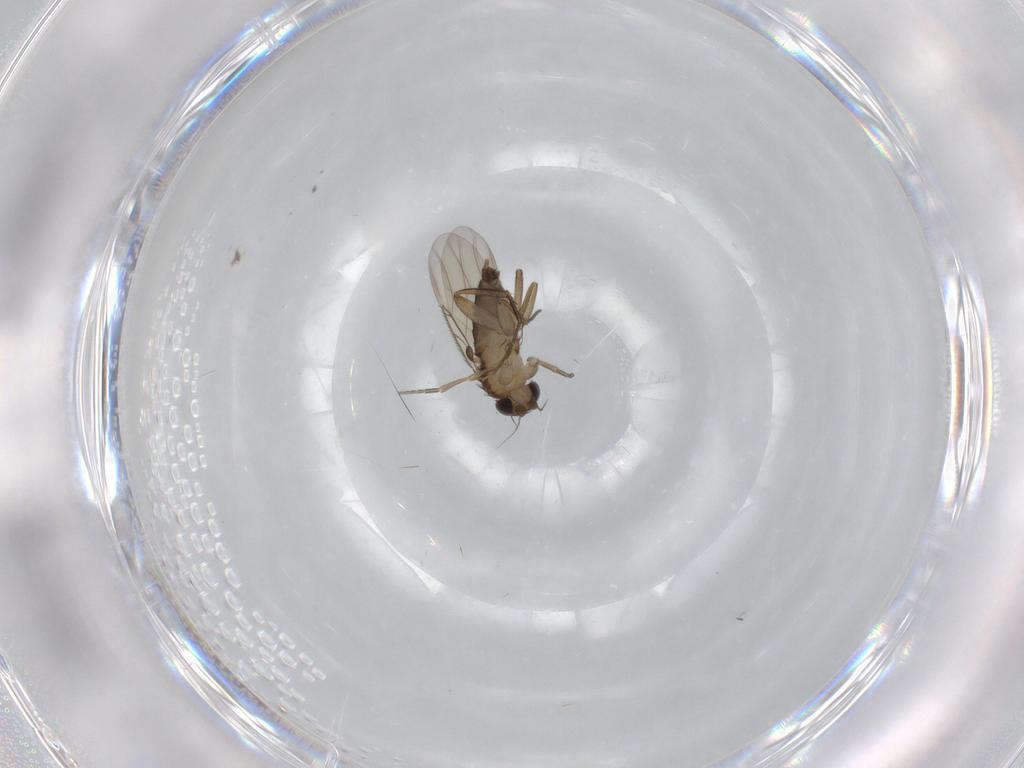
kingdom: Animalia
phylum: Arthropoda
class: Insecta
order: Diptera
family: Phoridae
